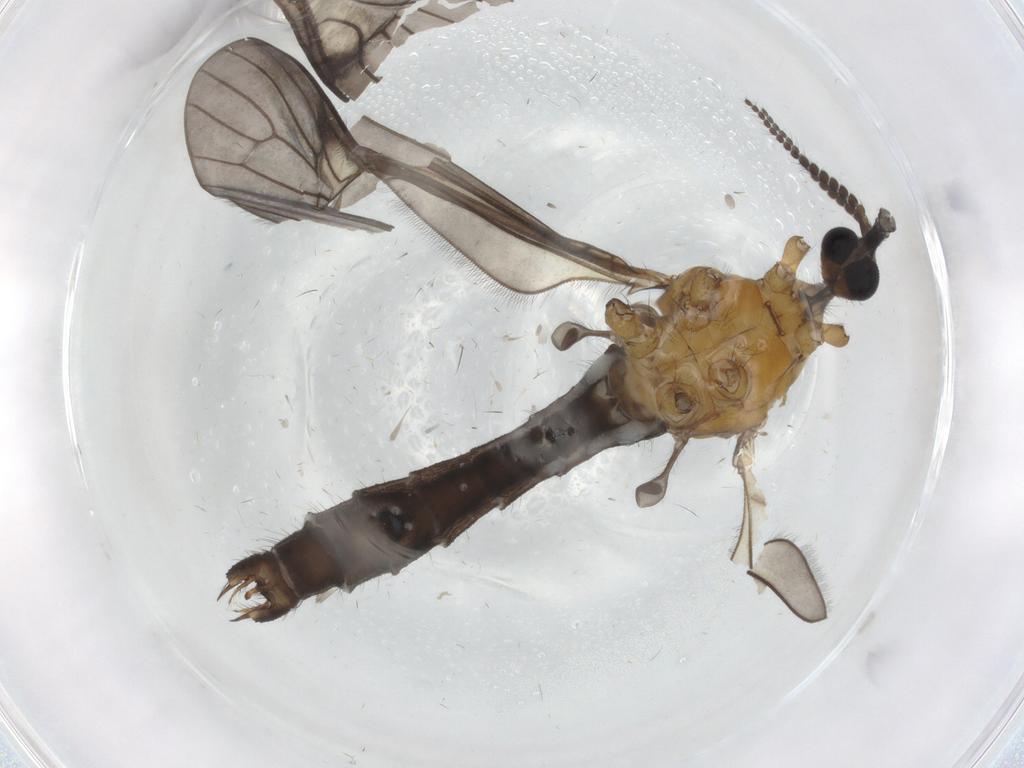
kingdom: Animalia
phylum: Arthropoda
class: Insecta
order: Diptera
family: Limoniidae
